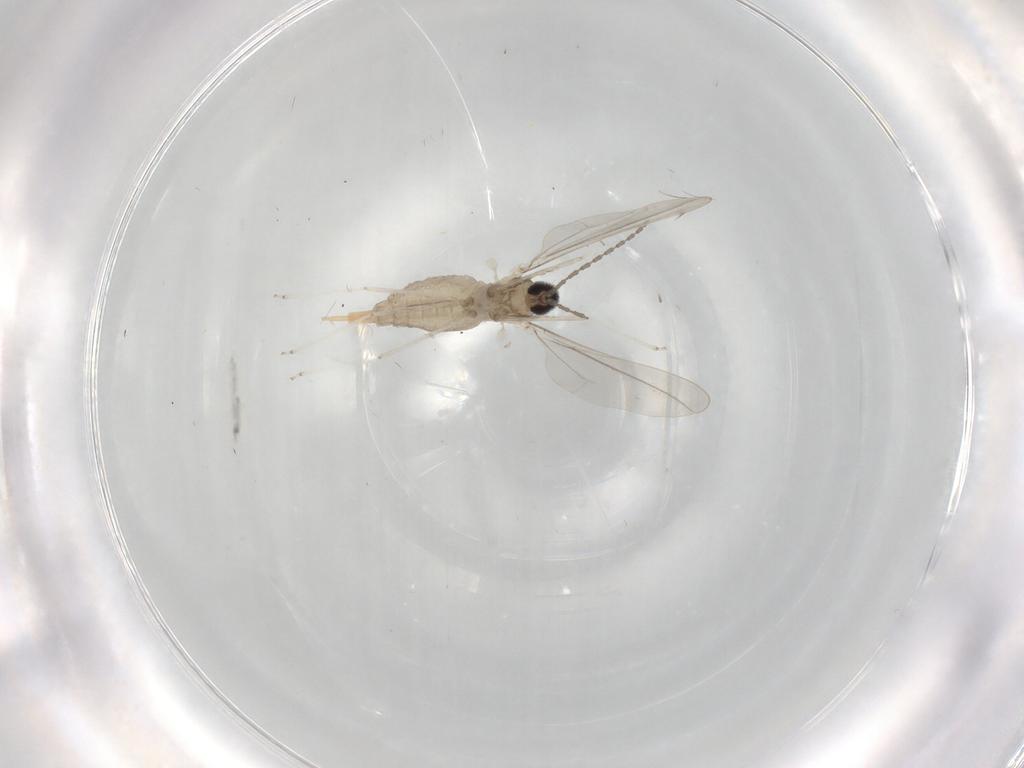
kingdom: Animalia
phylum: Arthropoda
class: Insecta
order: Diptera
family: Cecidomyiidae
